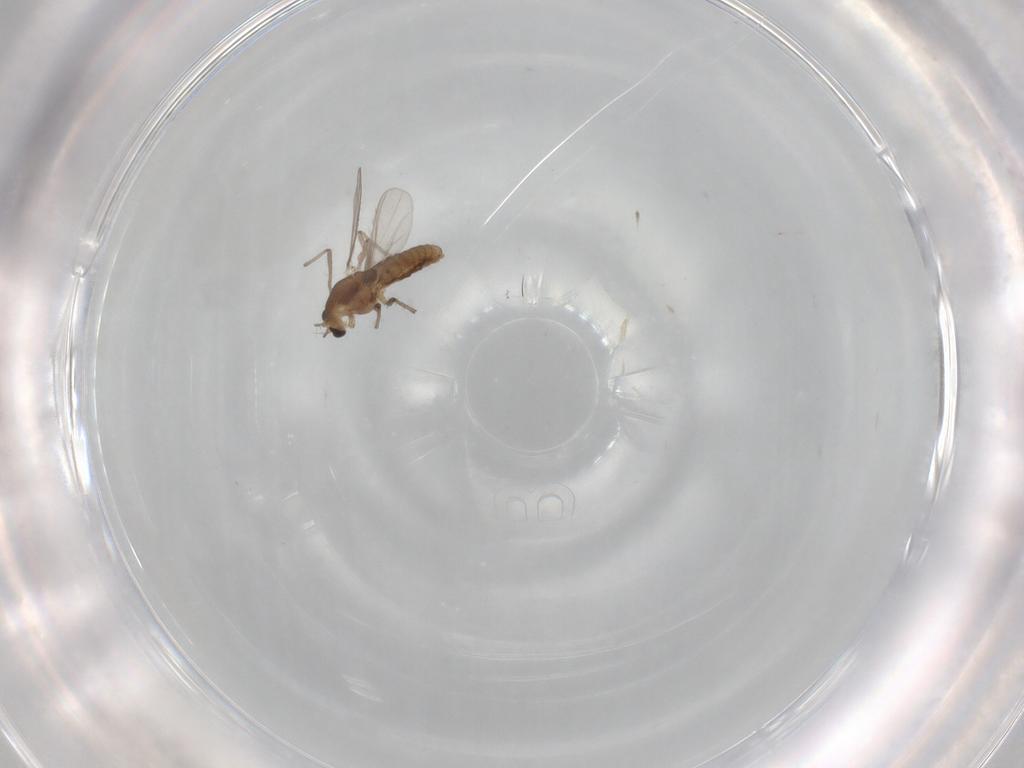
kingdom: Animalia
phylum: Arthropoda
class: Insecta
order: Diptera
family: Chironomidae
